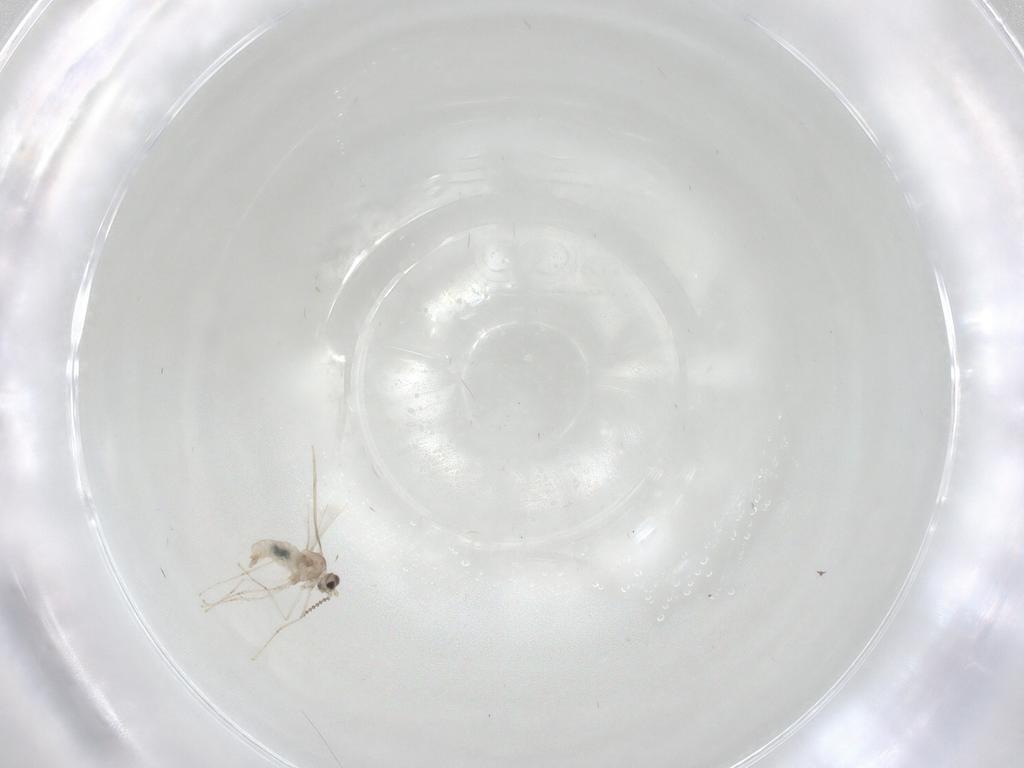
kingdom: Animalia
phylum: Arthropoda
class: Insecta
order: Diptera
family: Cecidomyiidae
